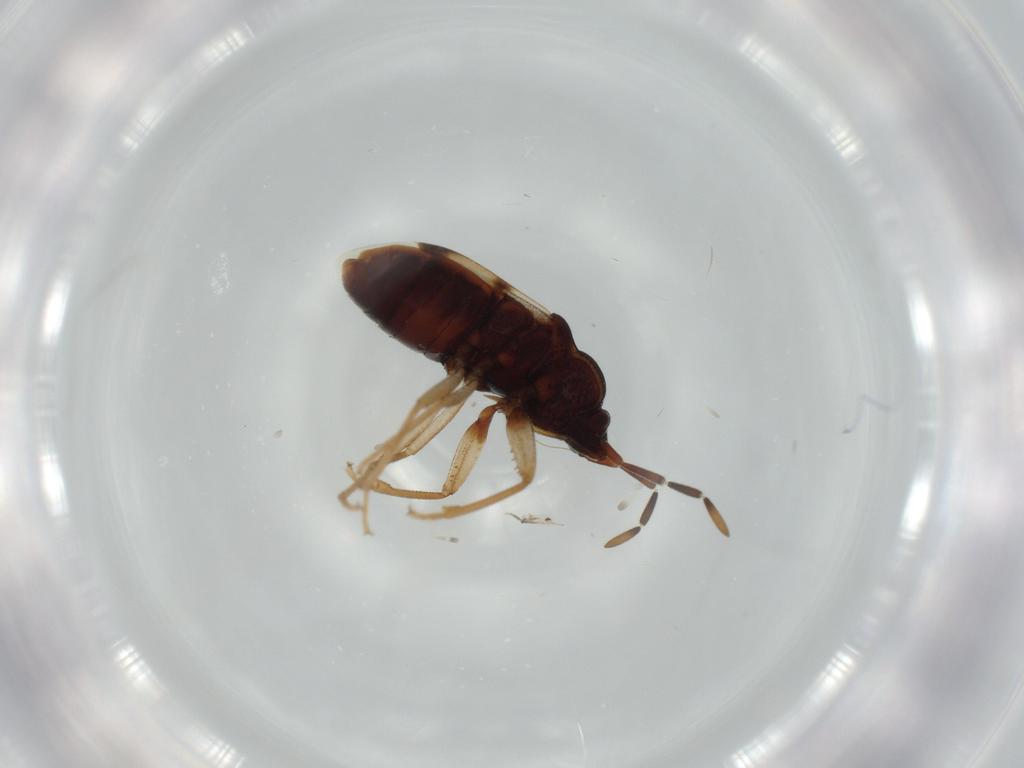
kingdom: Animalia
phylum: Arthropoda
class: Insecta
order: Hemiptera
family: Rhyparochromidae
